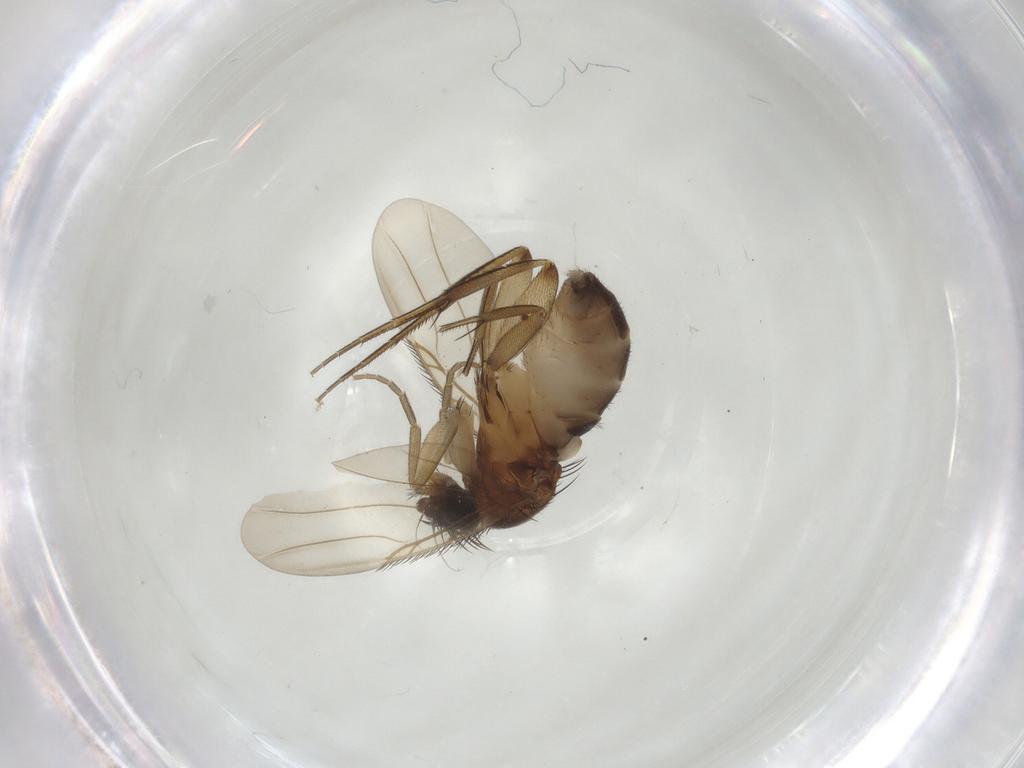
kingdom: Animalia
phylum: Arthropoda
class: Insecta
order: Diptera
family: Phoridae
